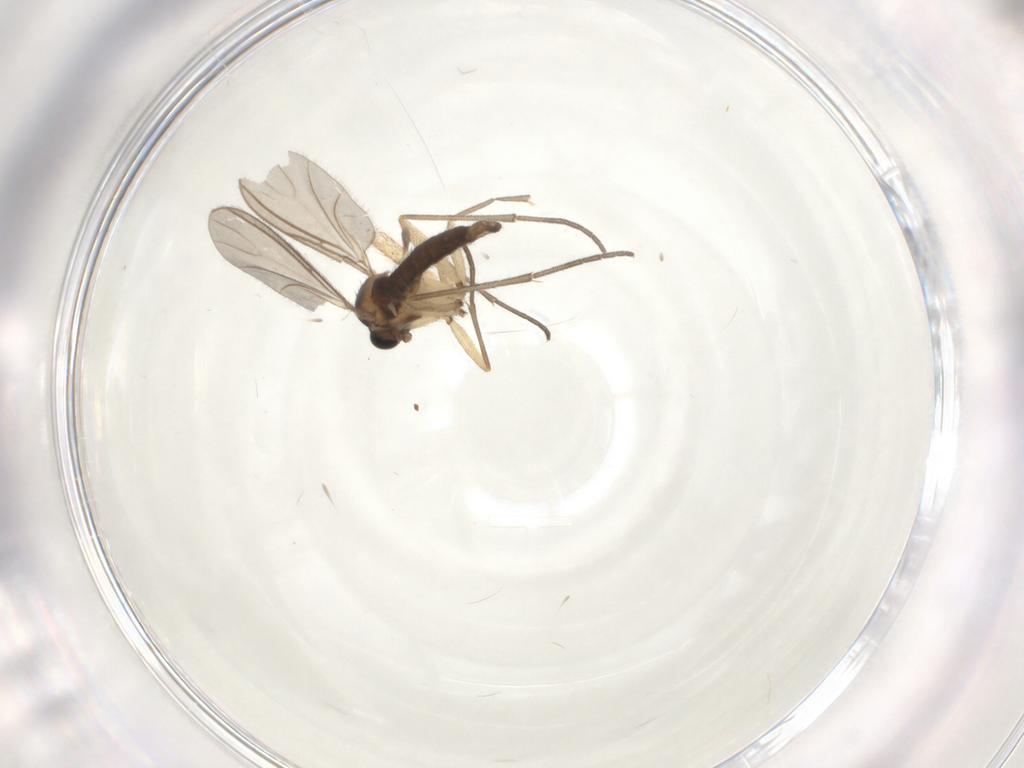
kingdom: Animalia
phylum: Arthropoda
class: Insecta
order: Diptera
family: Sciaridae
